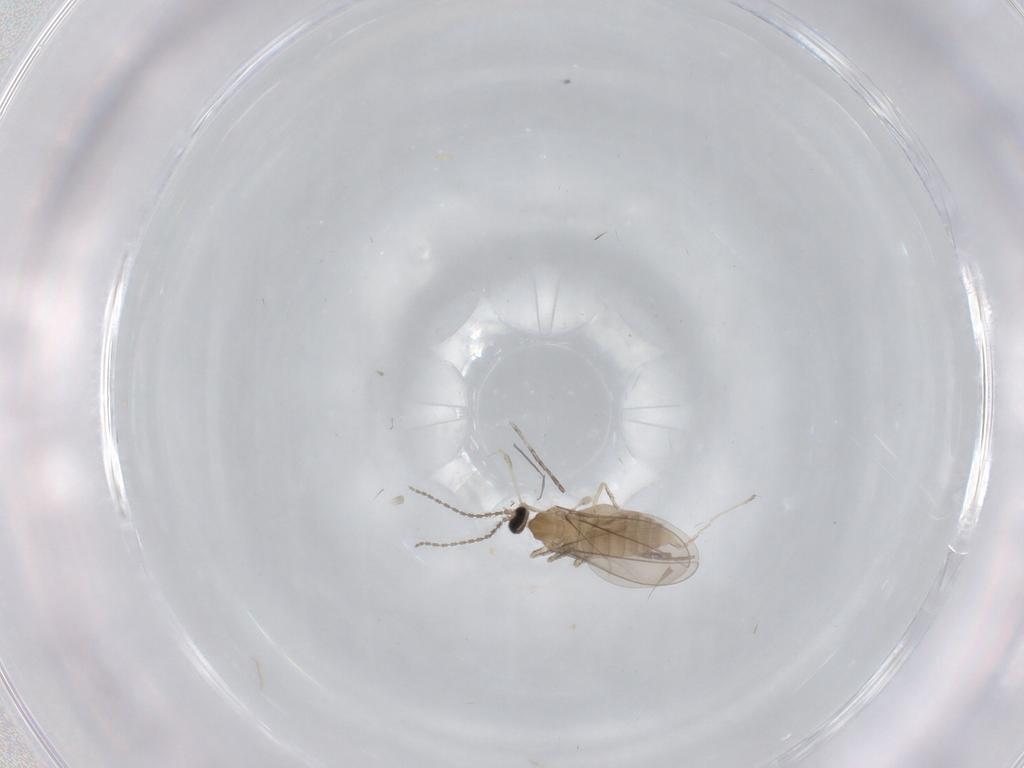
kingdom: Animalia
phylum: Arthropoda
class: Insecta
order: Diptera
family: Cecidomyiidae
